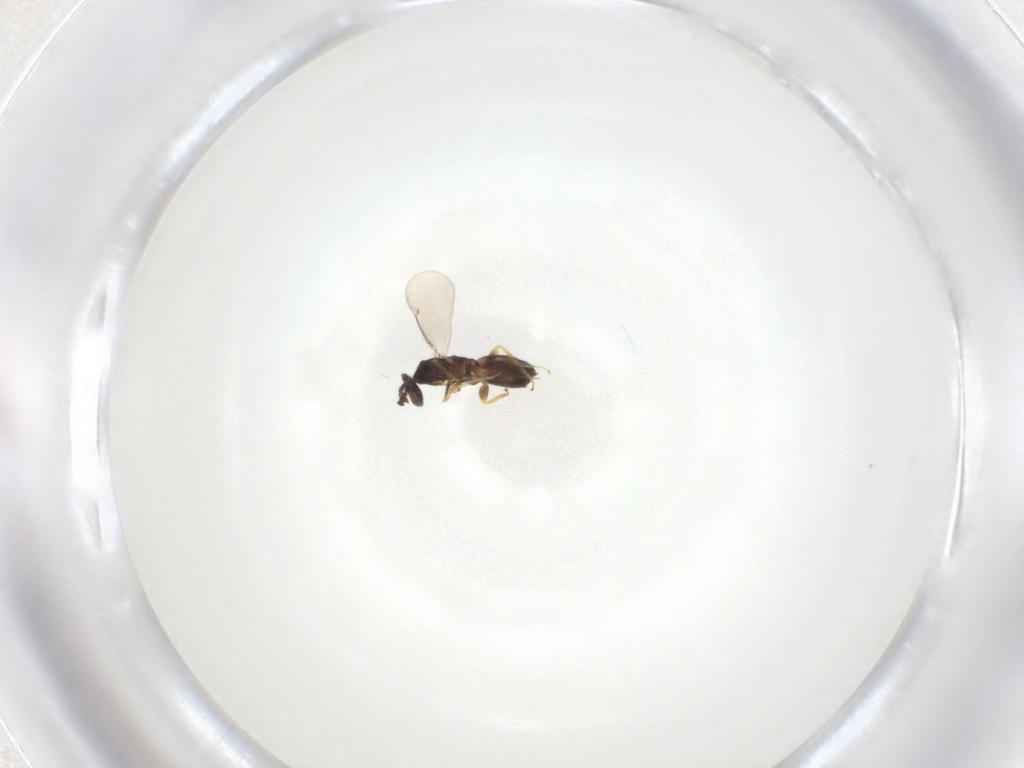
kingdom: Animalia
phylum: Arthropoda
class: Insecta
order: Hymenoptera
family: Eulophidae
